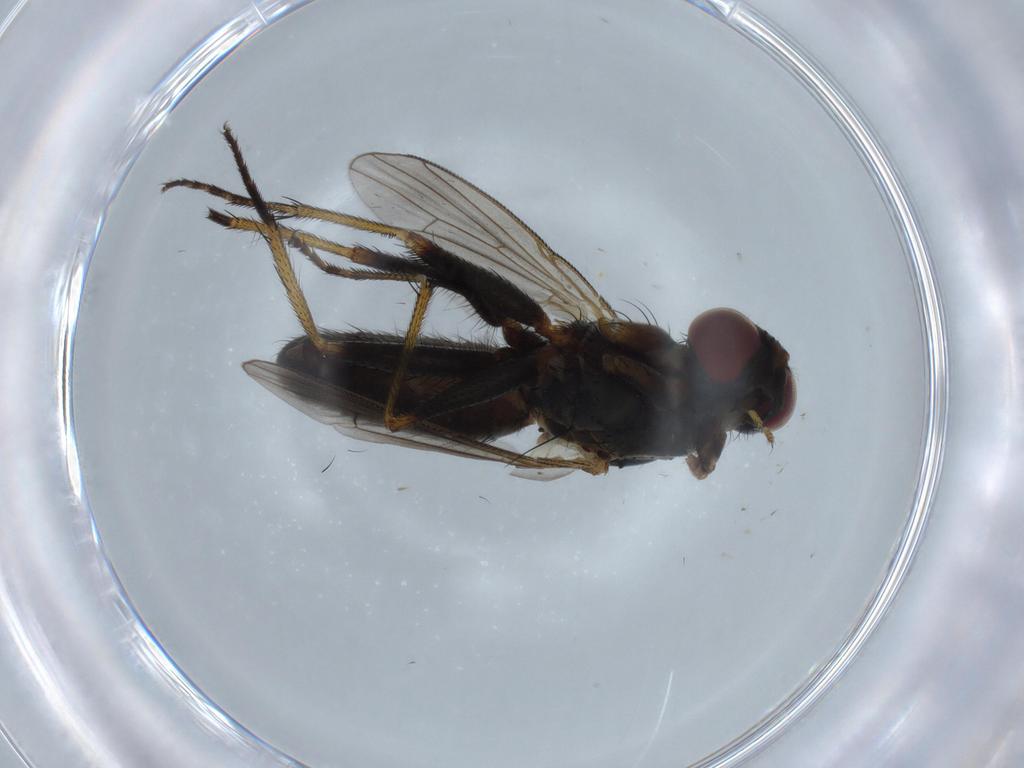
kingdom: Animalia
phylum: Arthropoda
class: Insecta
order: Diptera
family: Muscidae
